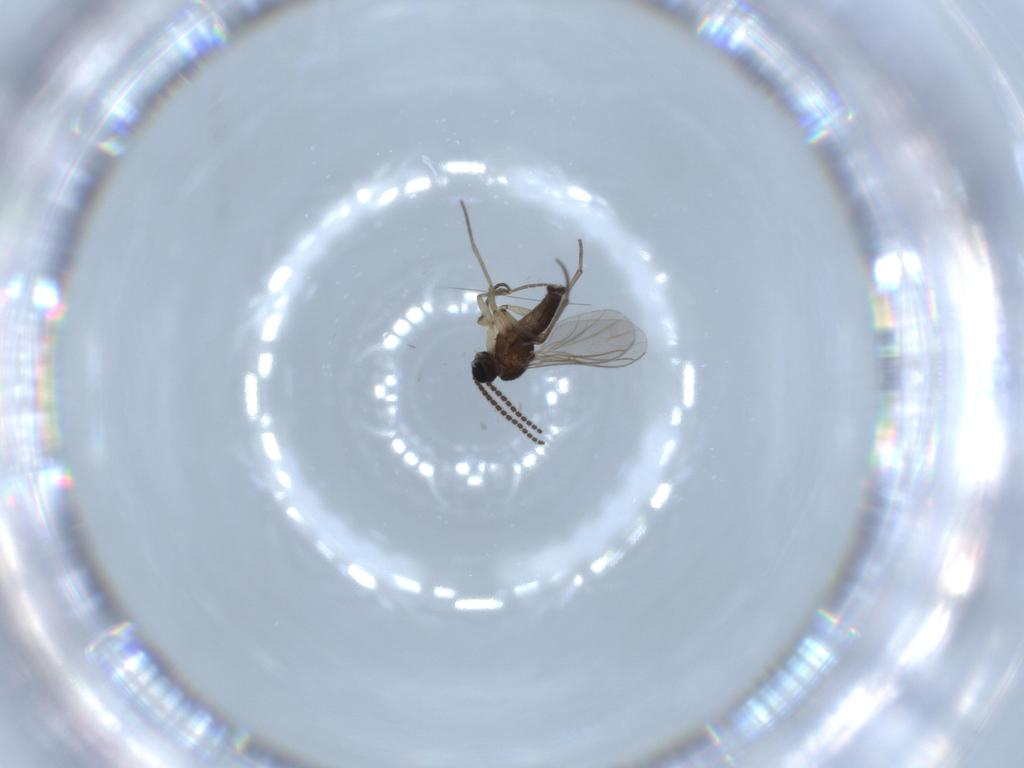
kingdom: Animalia
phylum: Arthropoda
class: Insecta
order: Diptera
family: Sciaridae
